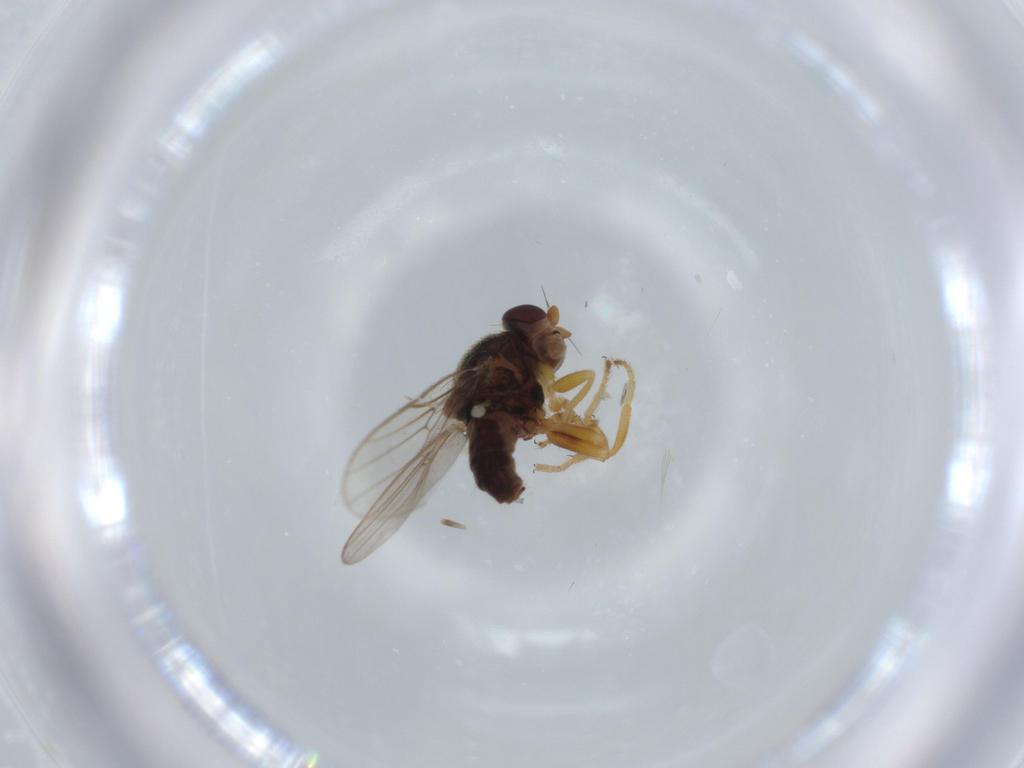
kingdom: Animalia
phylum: Arthropoda
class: Insecta
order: Diptera
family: Chloropidae
